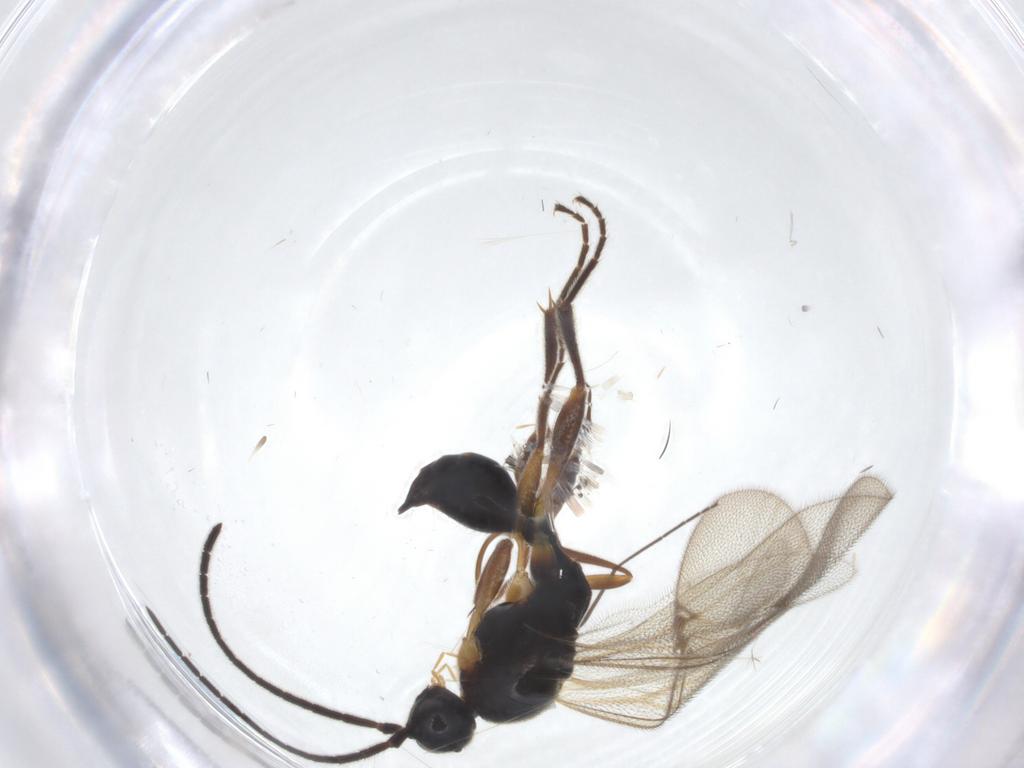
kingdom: Animalia
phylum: Arthropoda
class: Insecta
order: Hymenoptera
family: Proctotrupidae
